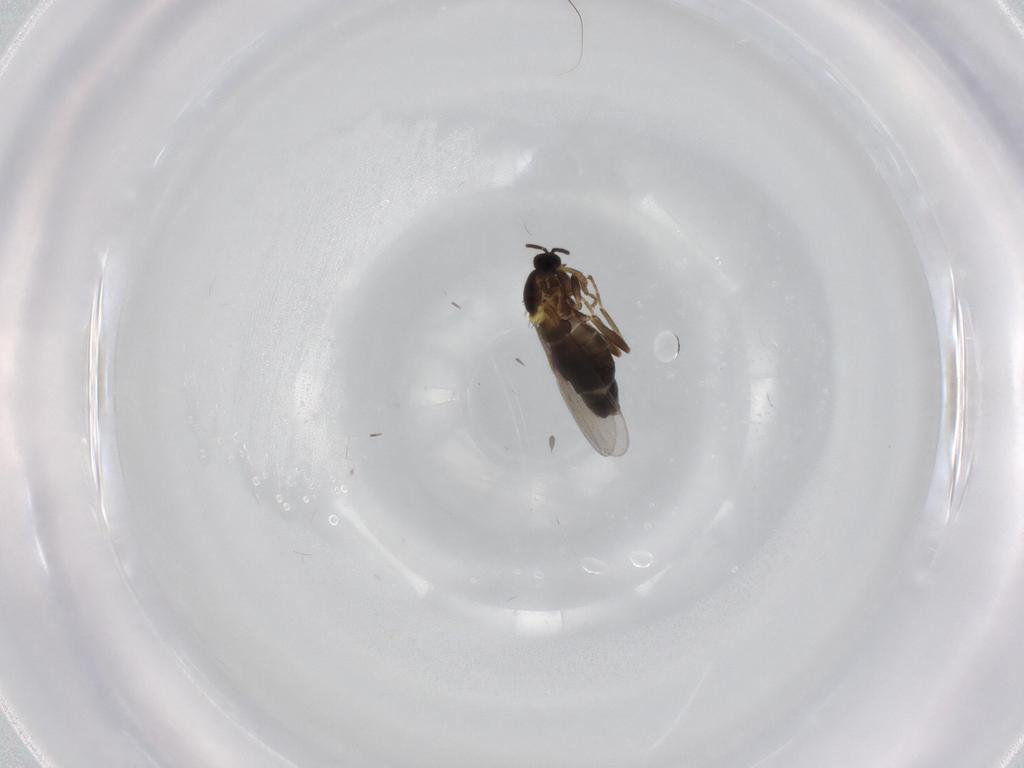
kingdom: Animalia
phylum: Arthropoda
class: Insecta
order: Diptera
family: Scatopsidae
